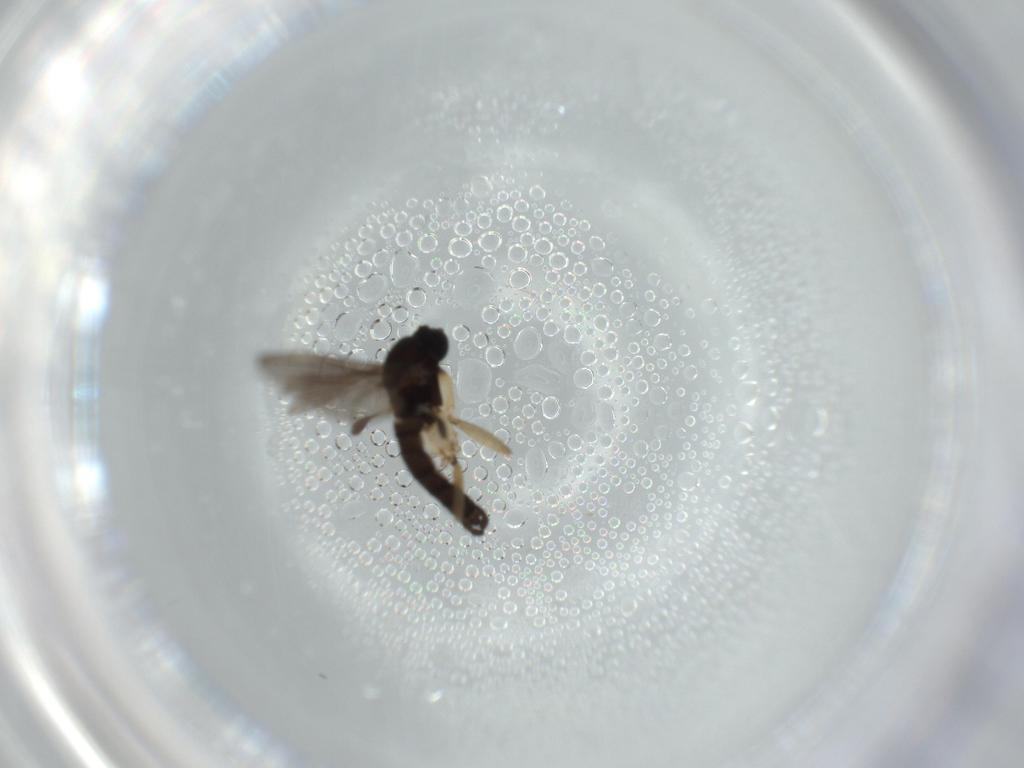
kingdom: Animalia
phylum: Arthropoda
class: Insecta
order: Diptera
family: Sciaridae
